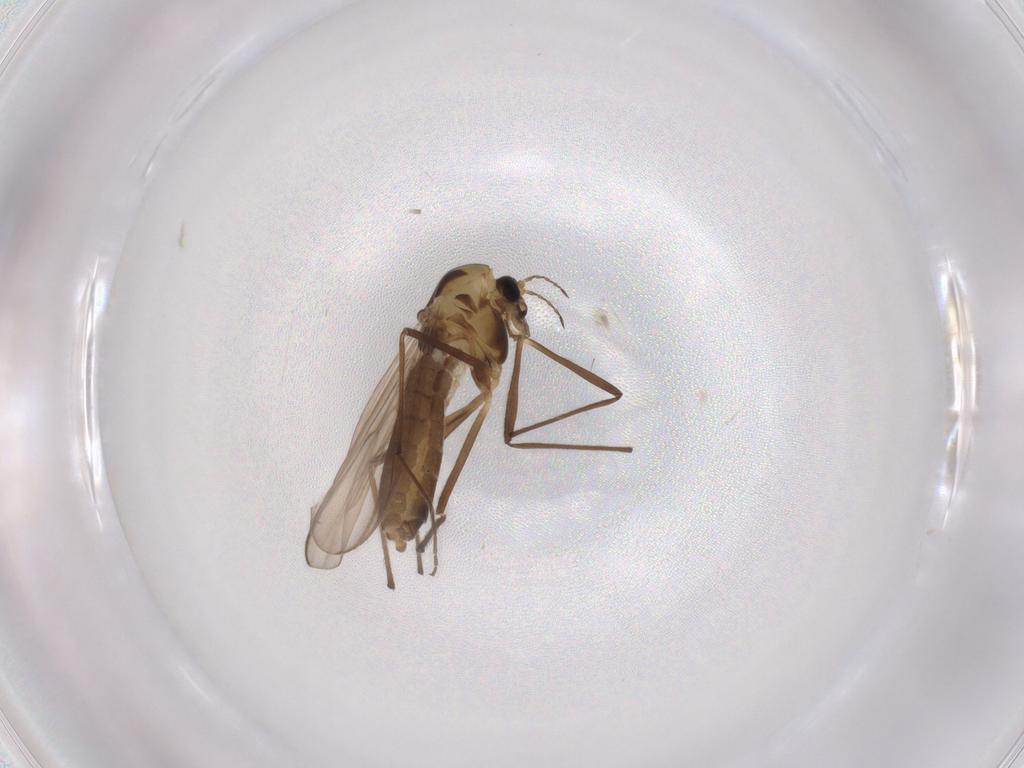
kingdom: Animalia
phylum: Arthropoda
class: Insecta
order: Diptera
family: Chironomidae
